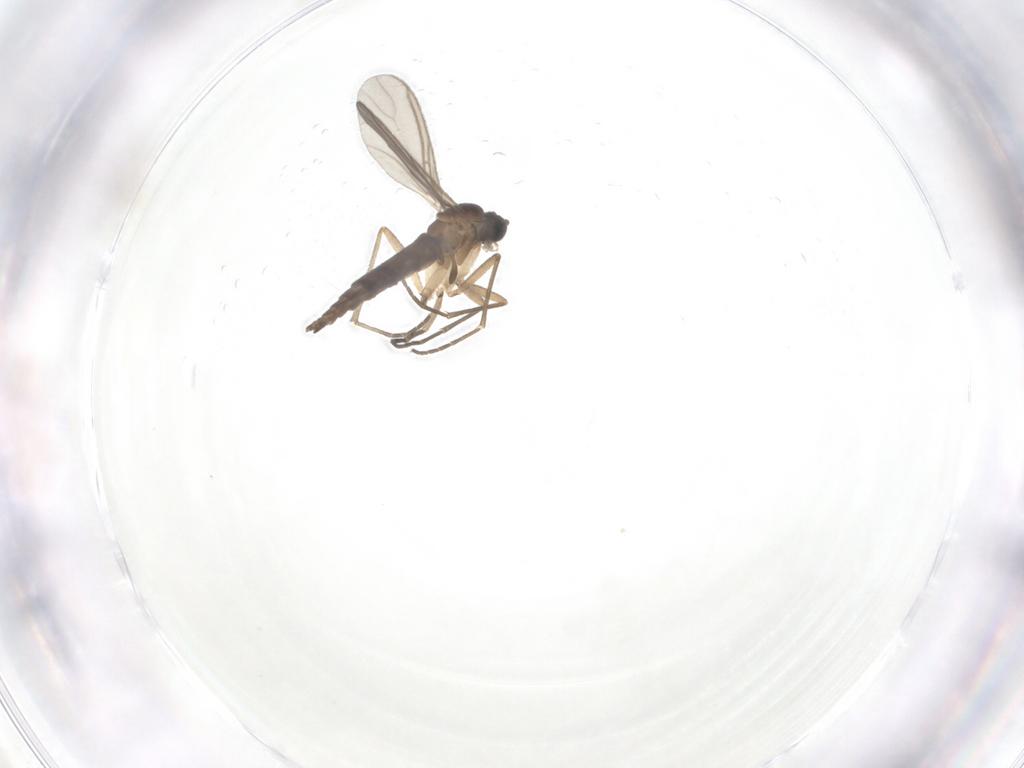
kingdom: Animalia
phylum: Arthropoda
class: Insecta
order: Diptera
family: Sciaridae
